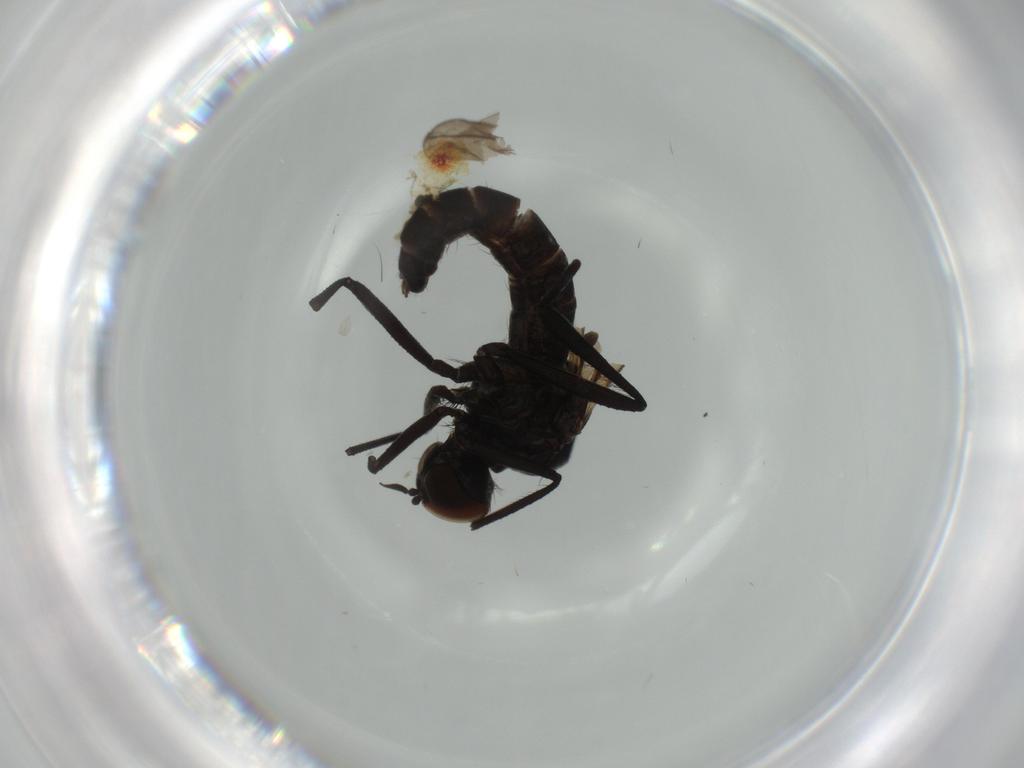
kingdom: Animalia
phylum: Arthropoda
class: Insecta
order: Diptera
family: Hybotidae
